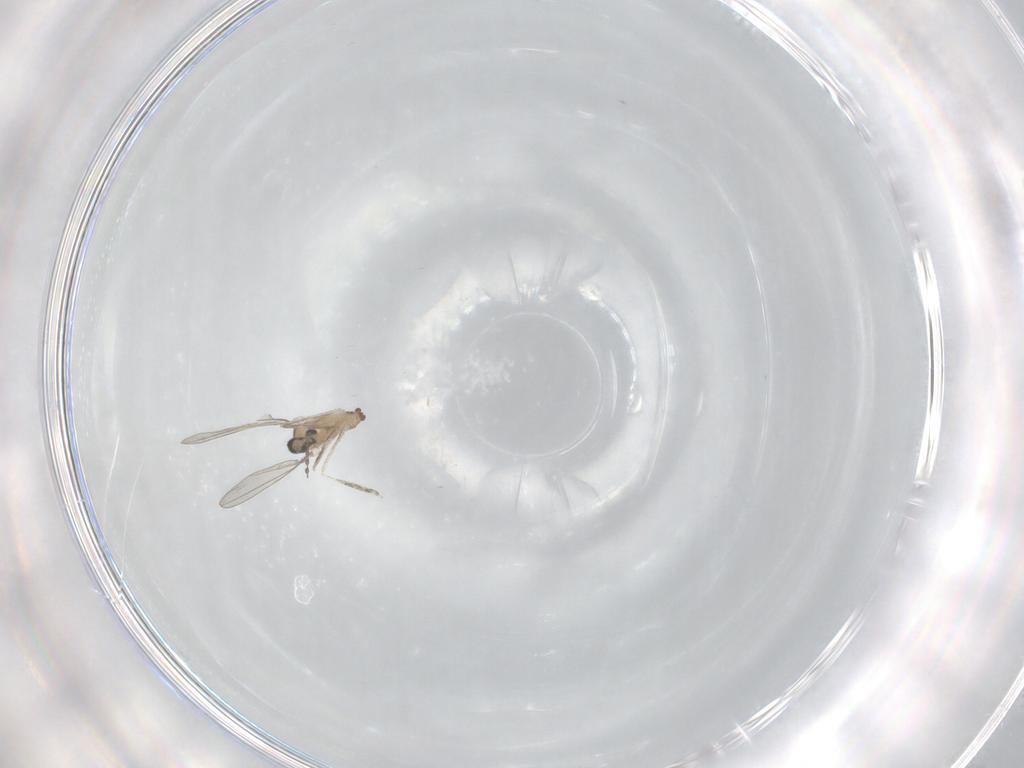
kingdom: Animalia
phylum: Arthropoda
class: Insecta
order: Diptera
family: Cecidomyiidae
